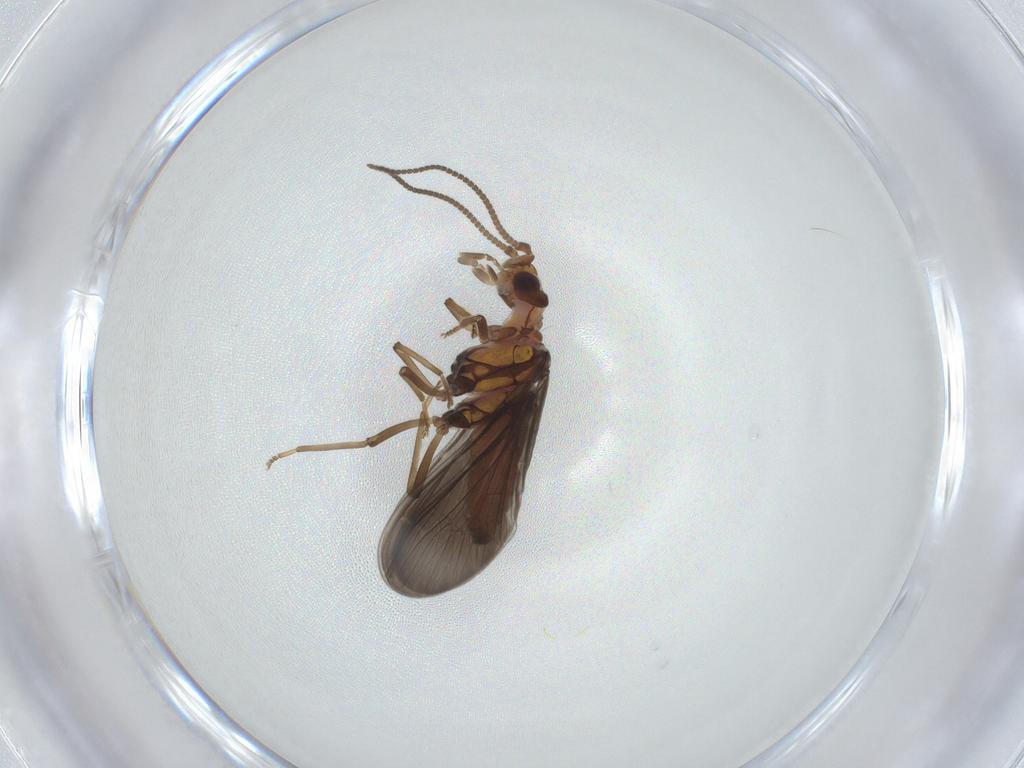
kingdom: Animalia
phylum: Arthropoda
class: Insecta
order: Neuroptera
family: Coniopterygidae
